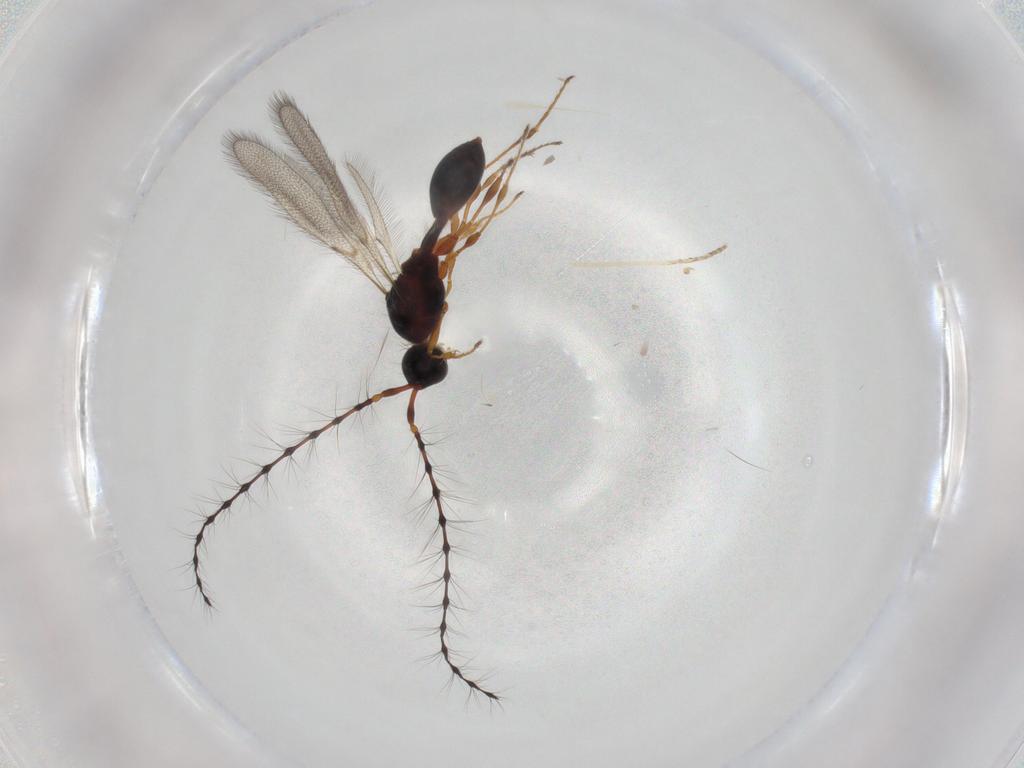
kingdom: Animalia
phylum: Arthropoda
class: Insecta
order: Hymenoptera
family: Diapriidae
